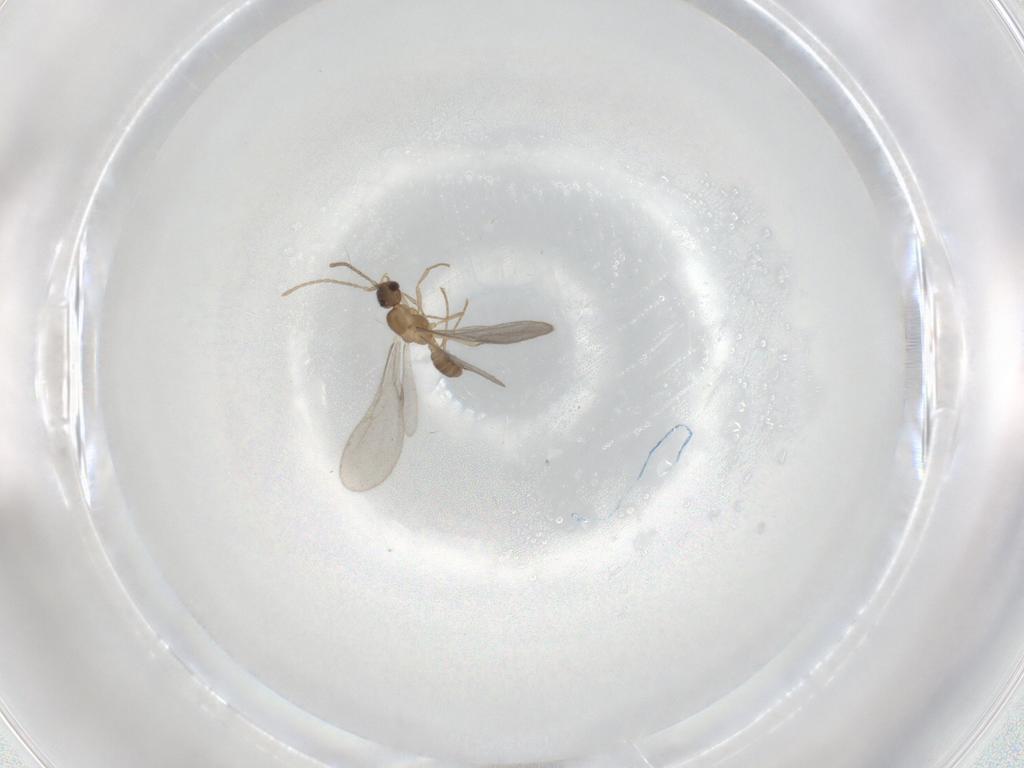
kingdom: Animalia
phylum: Arthropoda
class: Insecta
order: Hymenoptera
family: Formicidae
